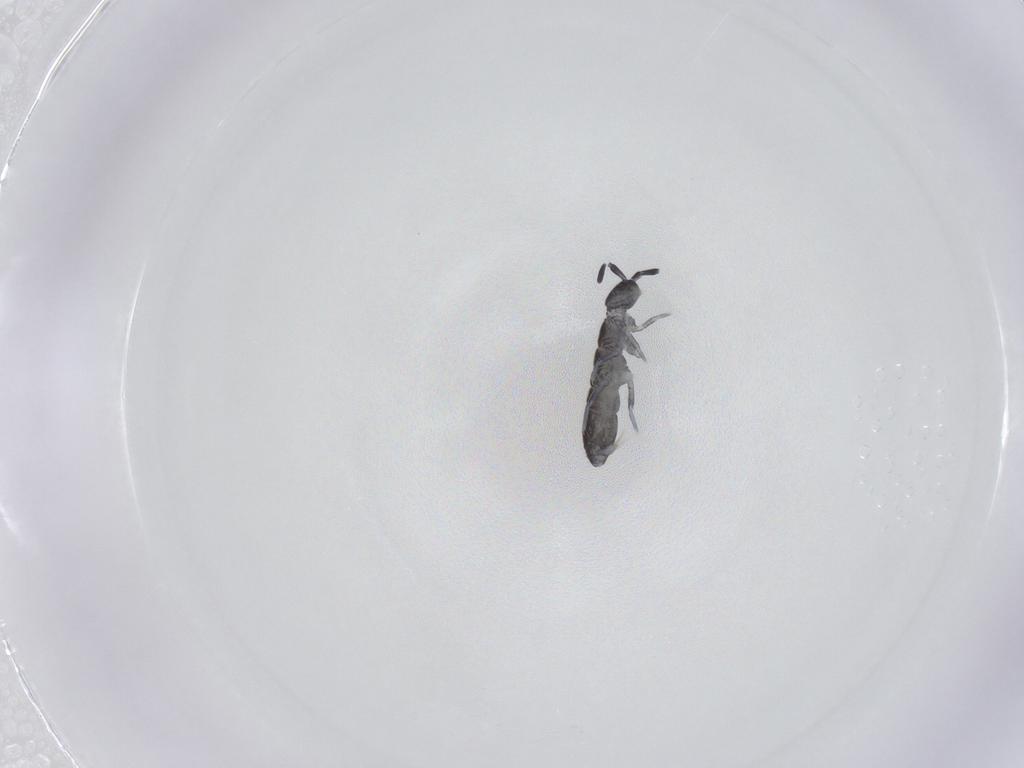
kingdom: Animalia
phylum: Arthropoda
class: Collembola
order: Entomobryomorpha
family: Isotomidae
